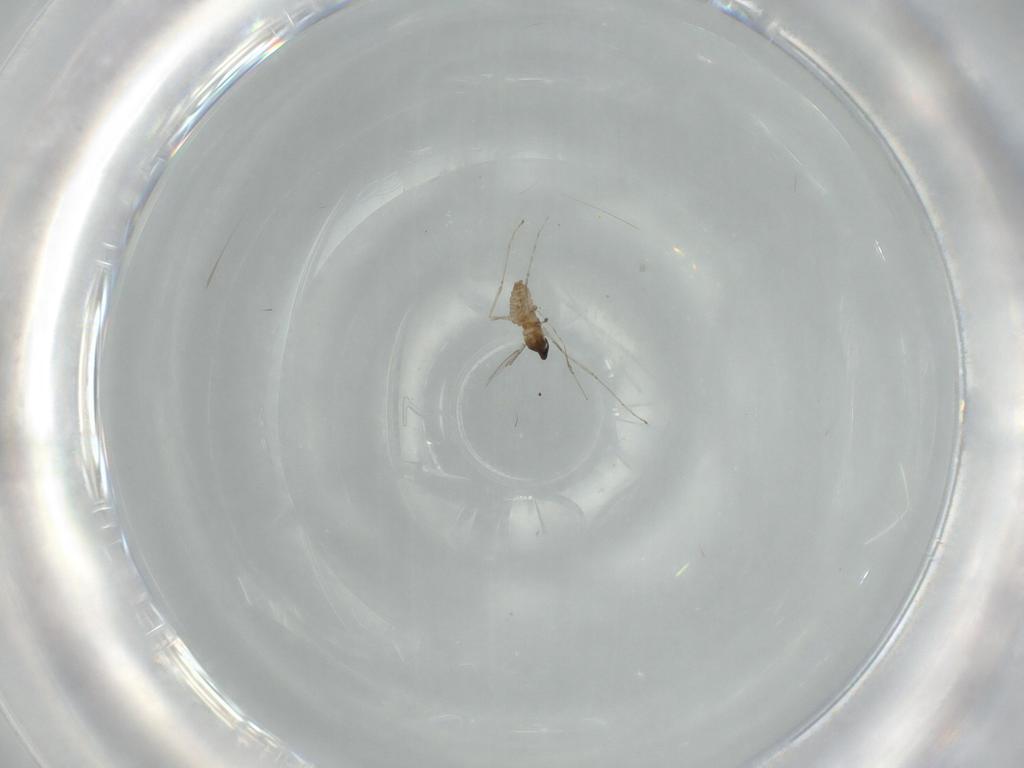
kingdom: Animalia
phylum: Arthropoda
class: Insecta
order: Diptera
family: Cecidomyiidae
